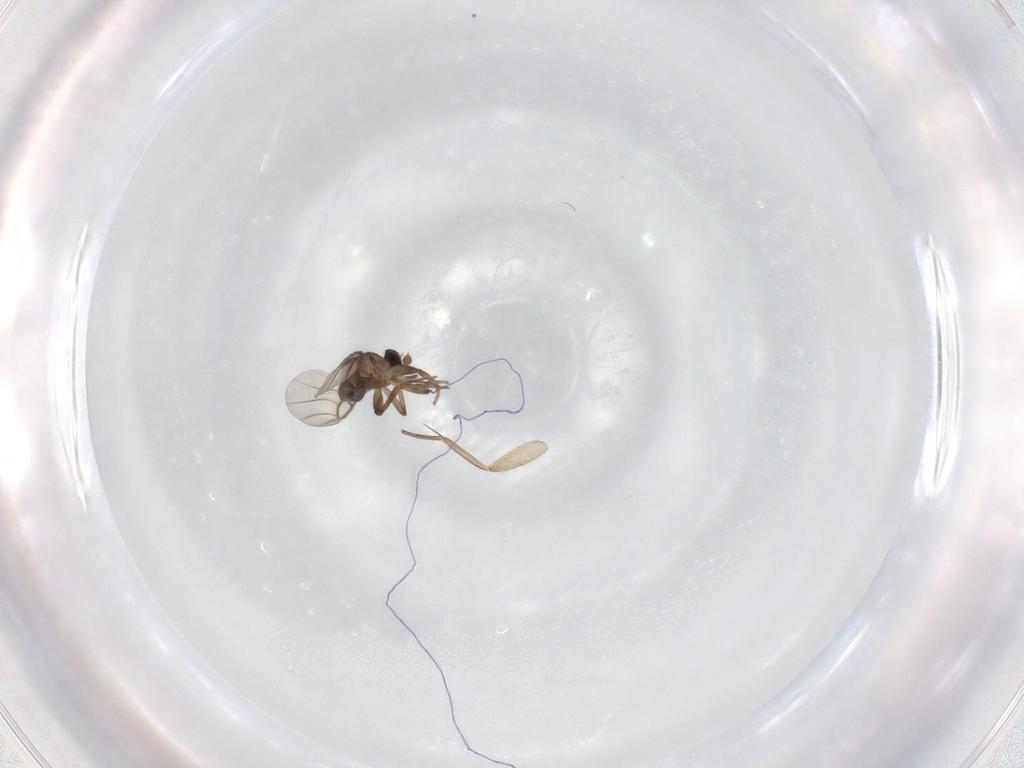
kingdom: Animalia
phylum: Arthropoda
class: Insecta
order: Diptera
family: Phoridae
